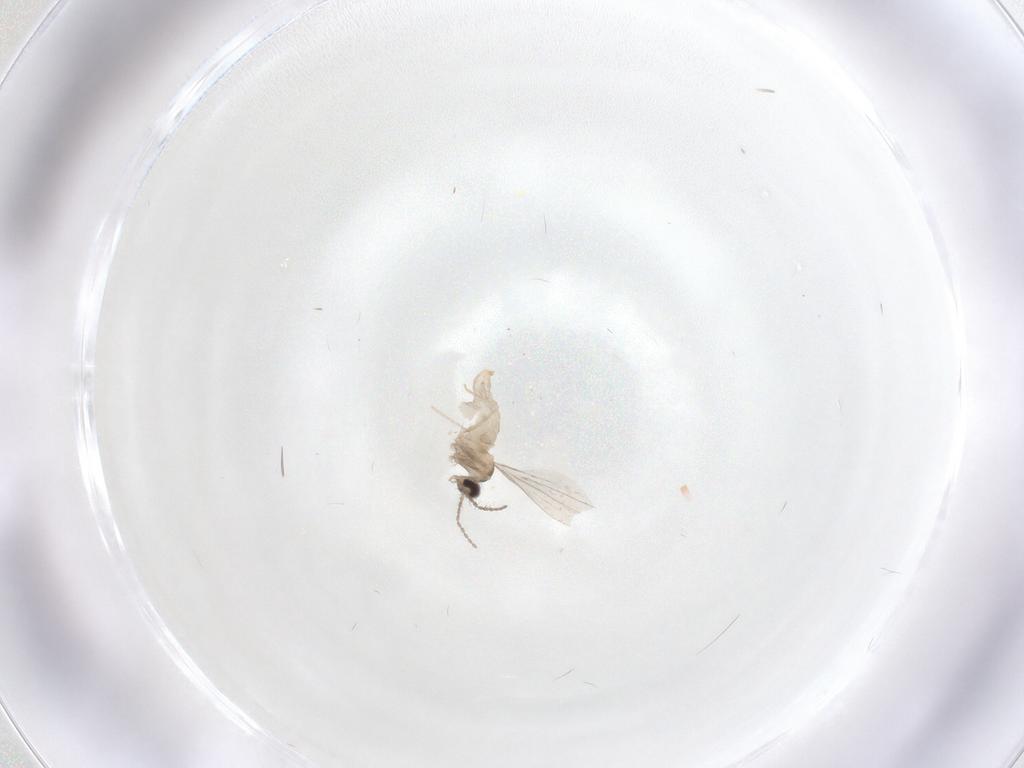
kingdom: Animalia
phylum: Arthropoda
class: Insecta
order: Diptera
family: Cecidomyiidae
